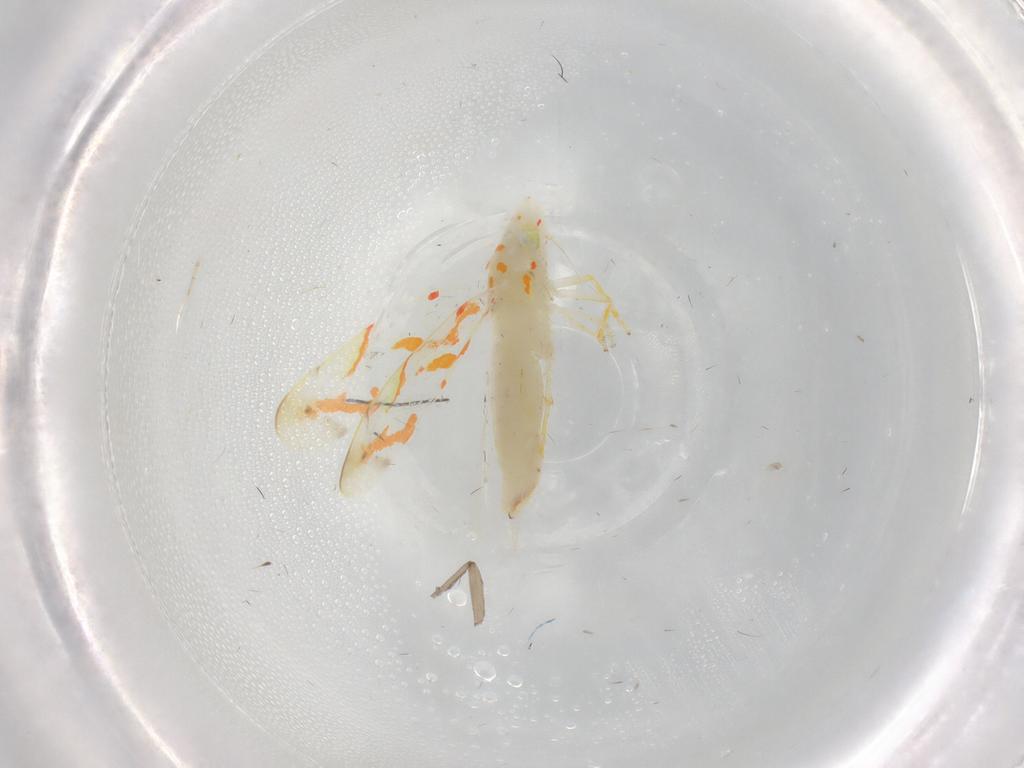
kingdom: Animalia
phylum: Arthropoda
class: Insecta
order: Hemiptera
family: Cicadellidae
